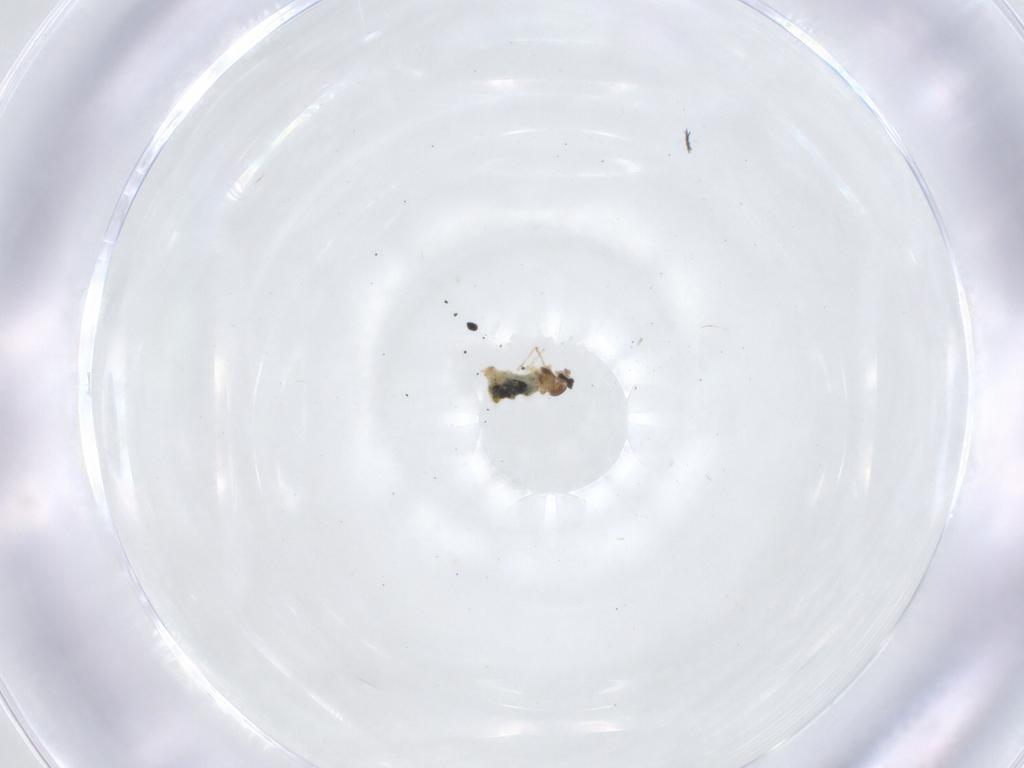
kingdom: Animalia
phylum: Arthropoda
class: Insecta
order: Diptera
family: Cecidomyiidae
